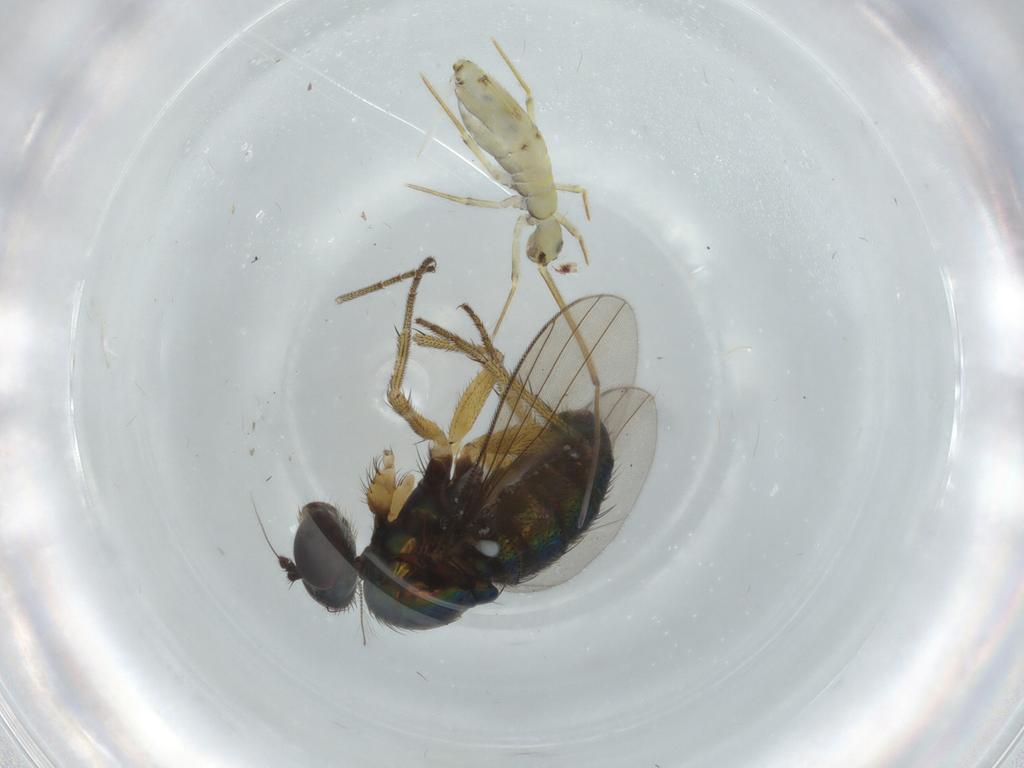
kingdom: Animalia
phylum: Arthropoda
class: Insecta
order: Diptera
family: Dolichopodidae
